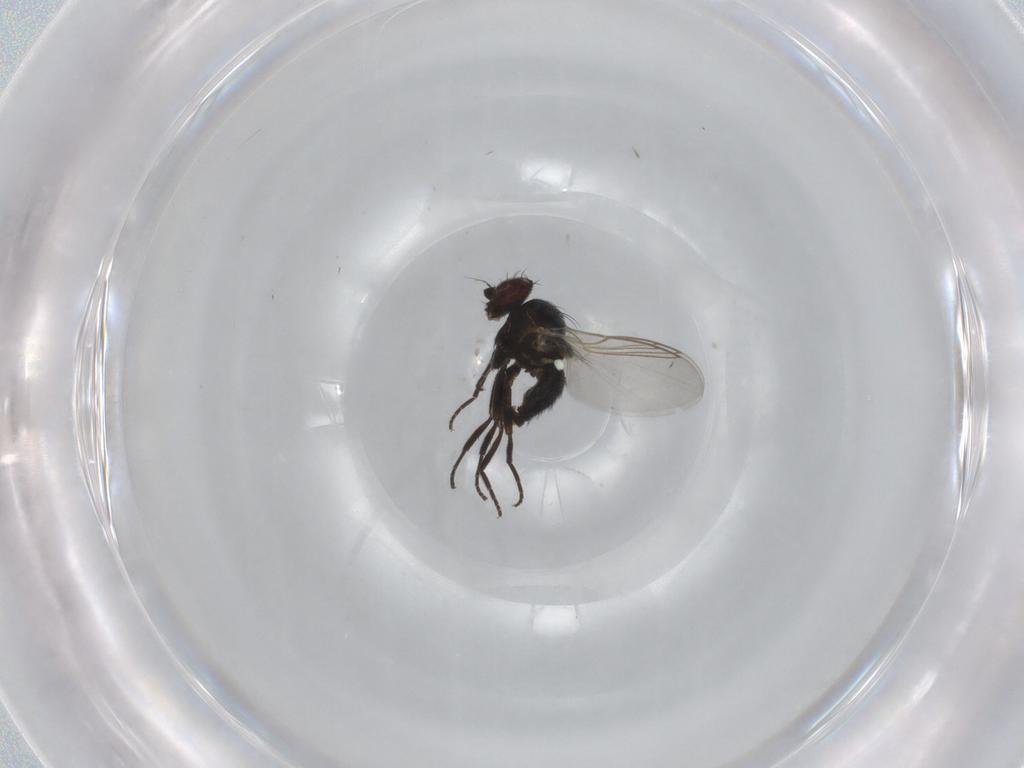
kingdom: Animalia
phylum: Arthropoda
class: Insecta
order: Diptera
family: Agromyzidae
